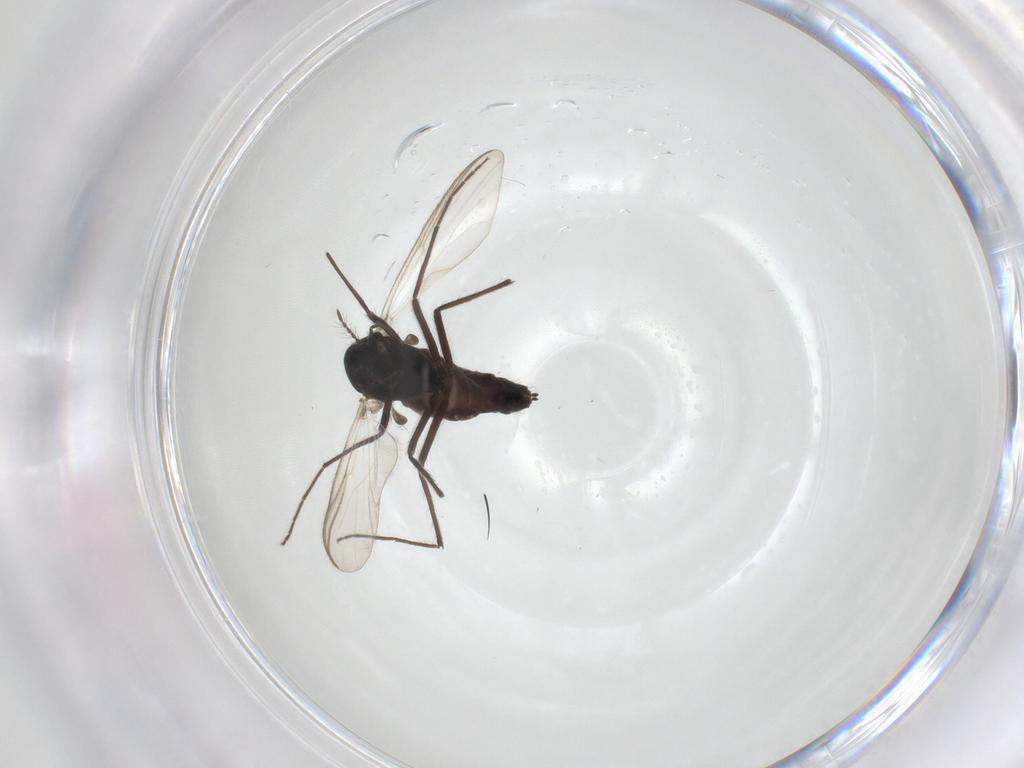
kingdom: Animalia
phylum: Arthropoda
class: Insecta
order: Diptera
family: Chironomidae
